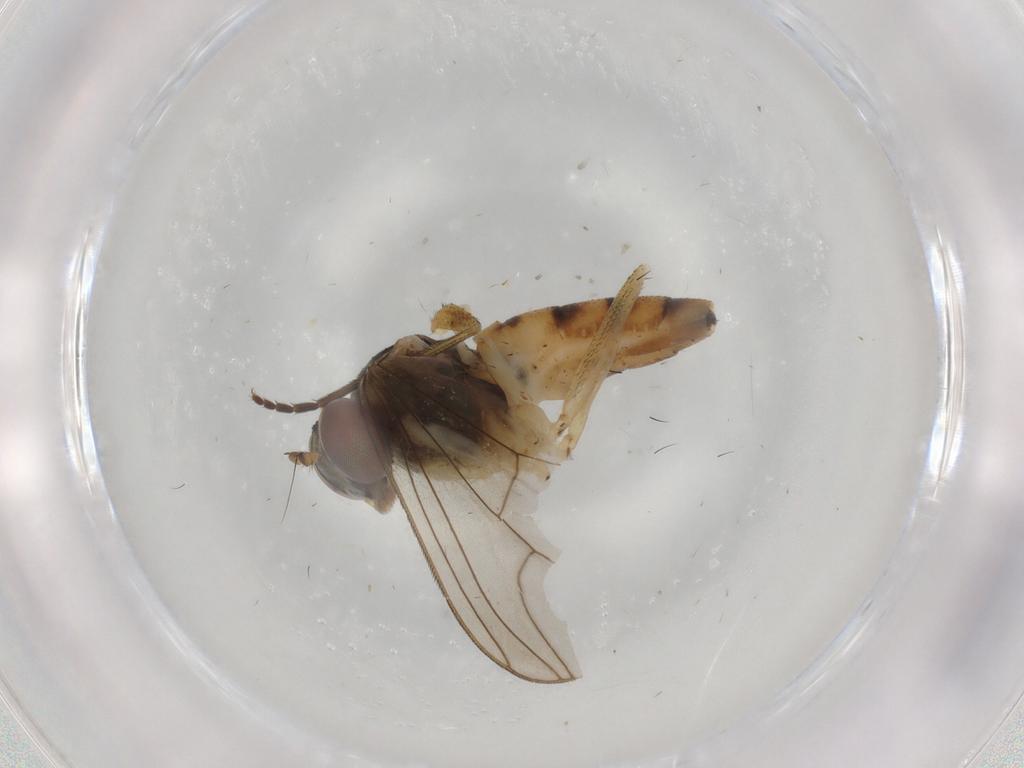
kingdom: Animalia
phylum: Arthropoda
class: Insecta
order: Diptera
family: Dolichopodidae
